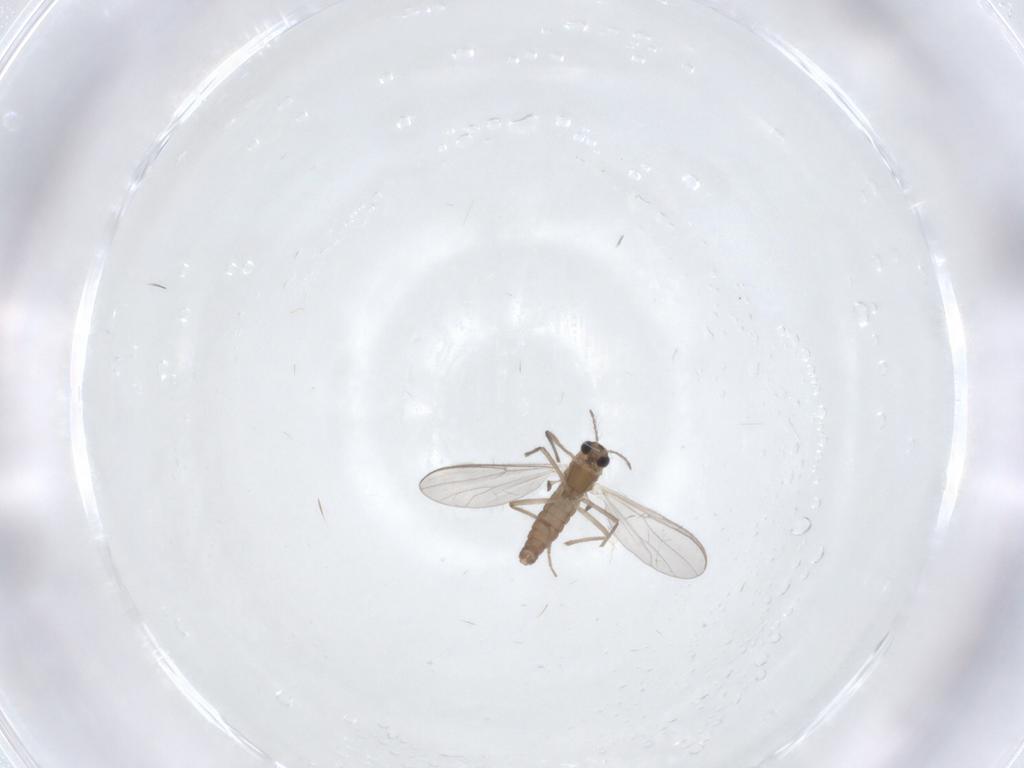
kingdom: Animalia
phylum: Arthropoda
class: Insecta
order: Diptera
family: Chironomidae
